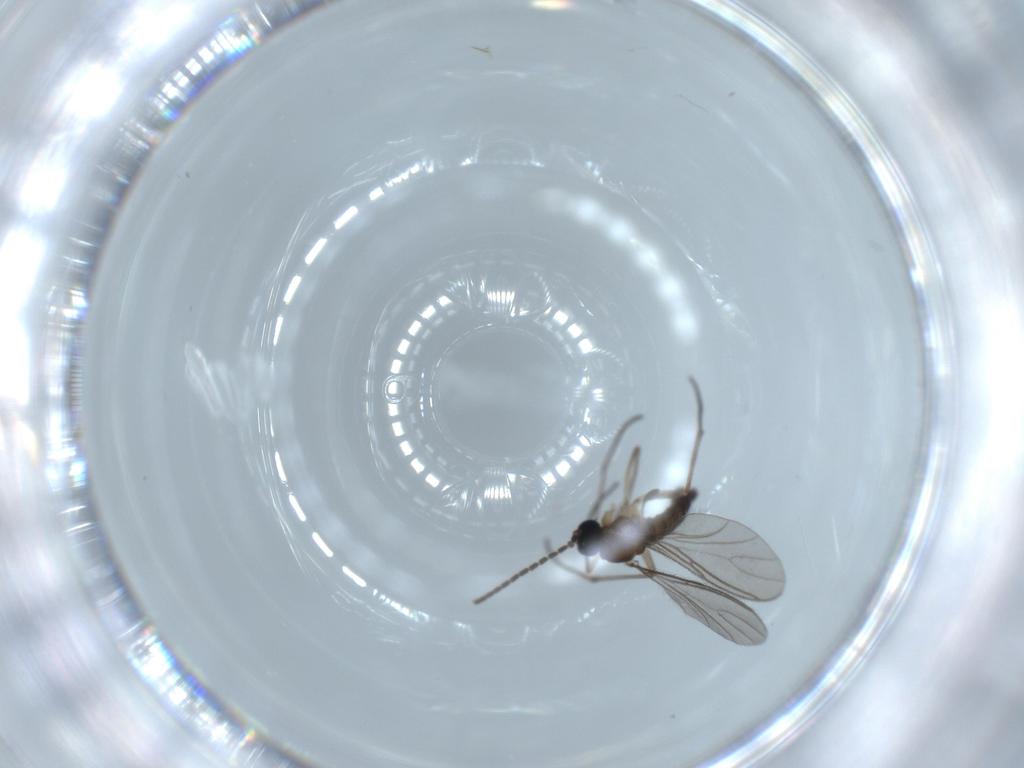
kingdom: Animalia
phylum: Arthropoda
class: Insecta
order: Diptera
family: Sciaridae
